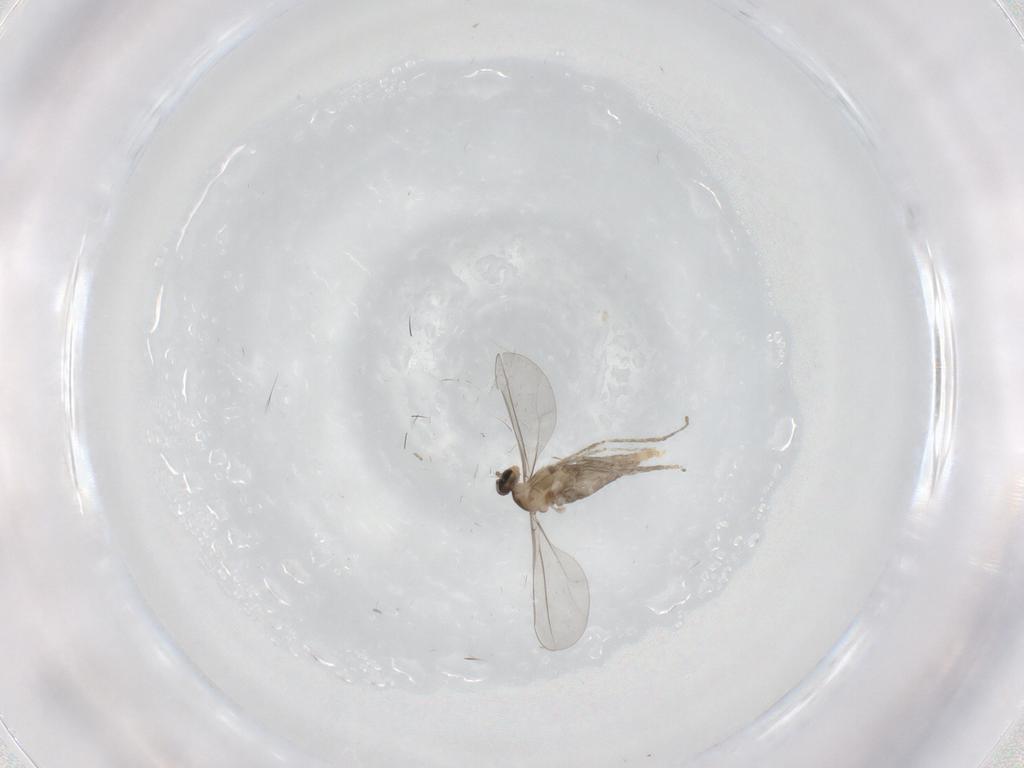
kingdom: Animalia
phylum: Arthropoda
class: Insecta
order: Diptera
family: Cecidomyiidae
